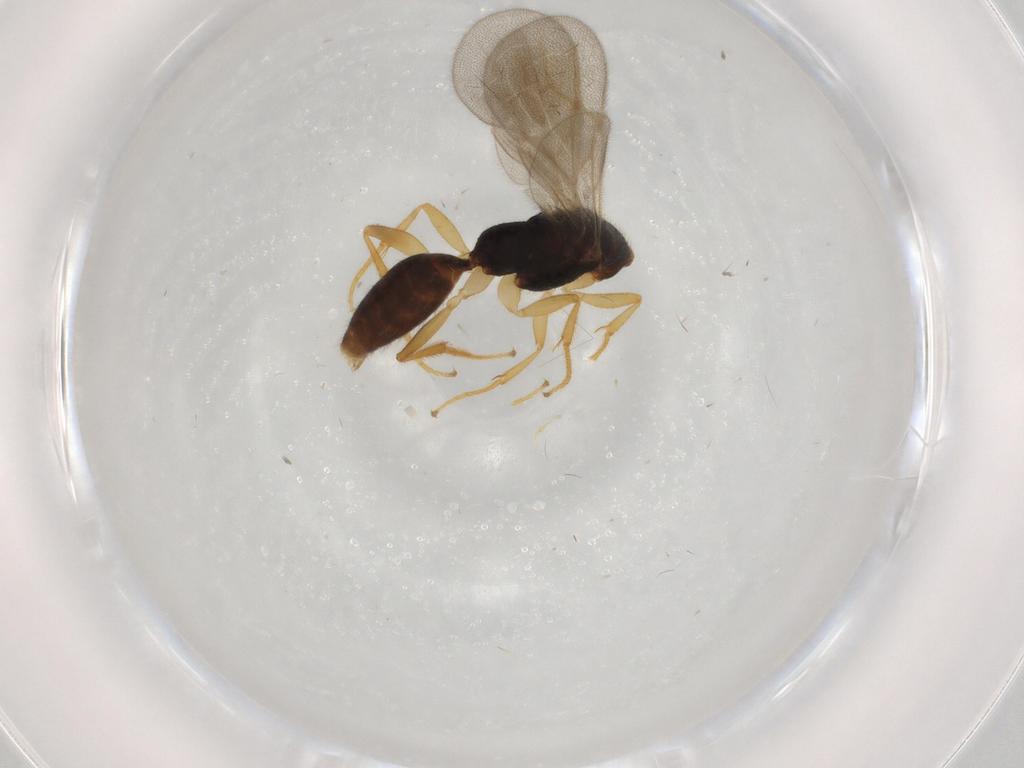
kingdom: Animalia
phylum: Arthropoda
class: Insecta
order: Hymenoptera
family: Bethylidae
